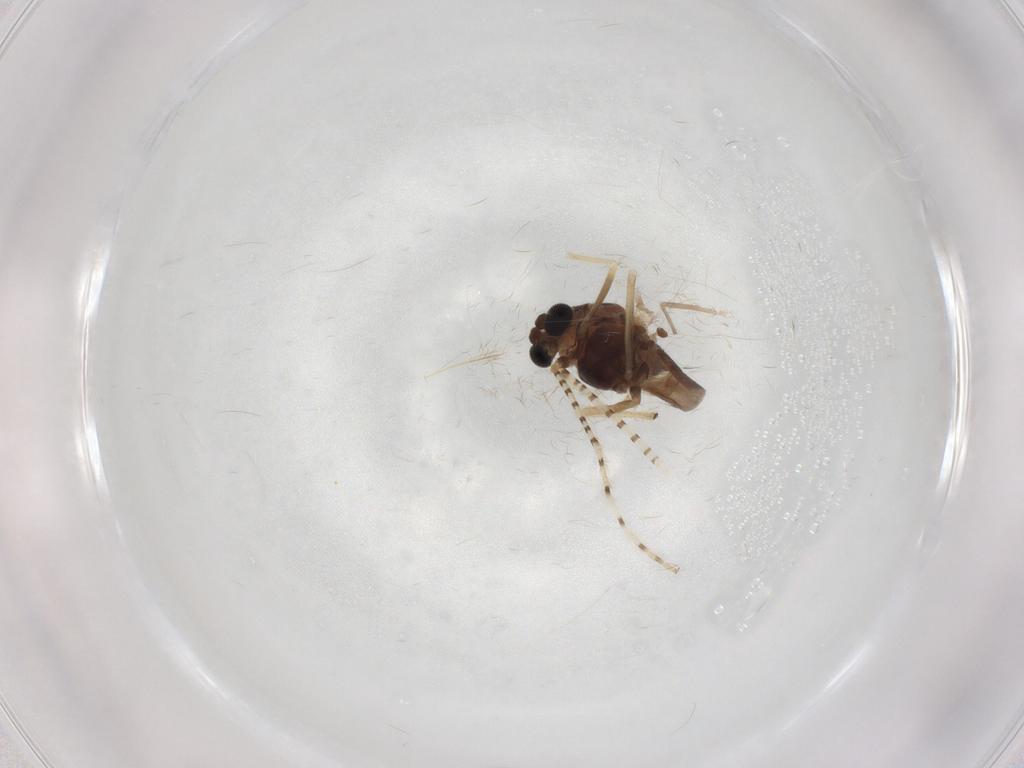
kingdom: Animalia
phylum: Arthropoda
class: Insecta
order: Diptera
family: Chironomidae
